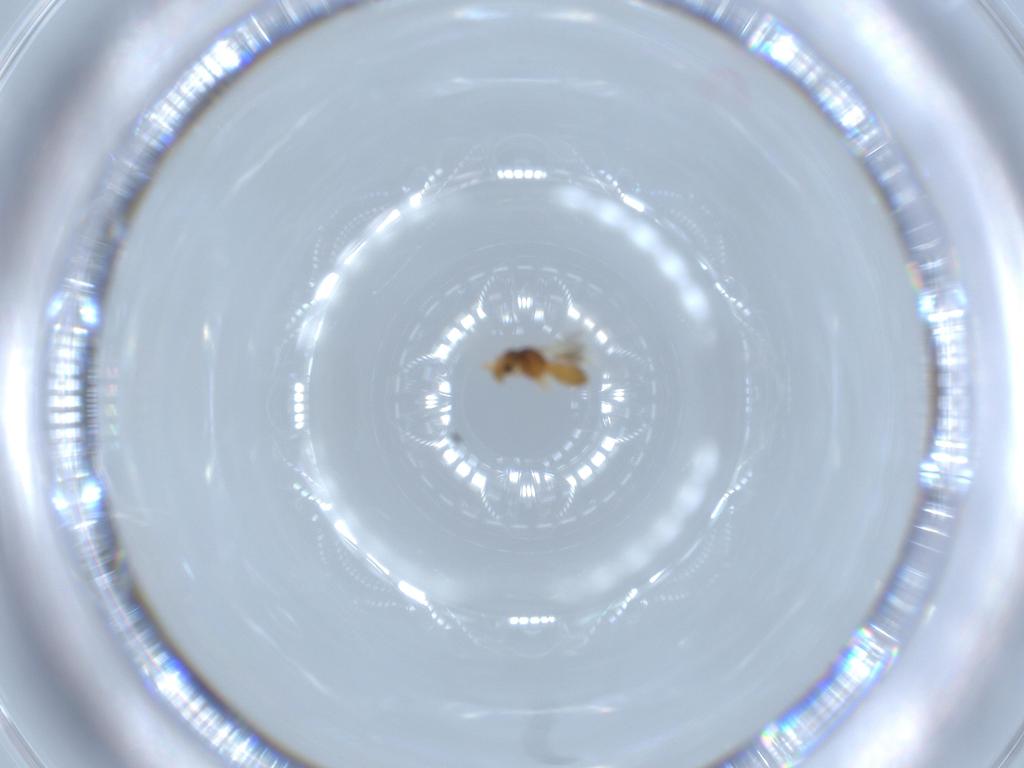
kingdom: Animalia
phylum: Arthropoda
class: Insecta
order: Hymenoptera
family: Scelionidae
